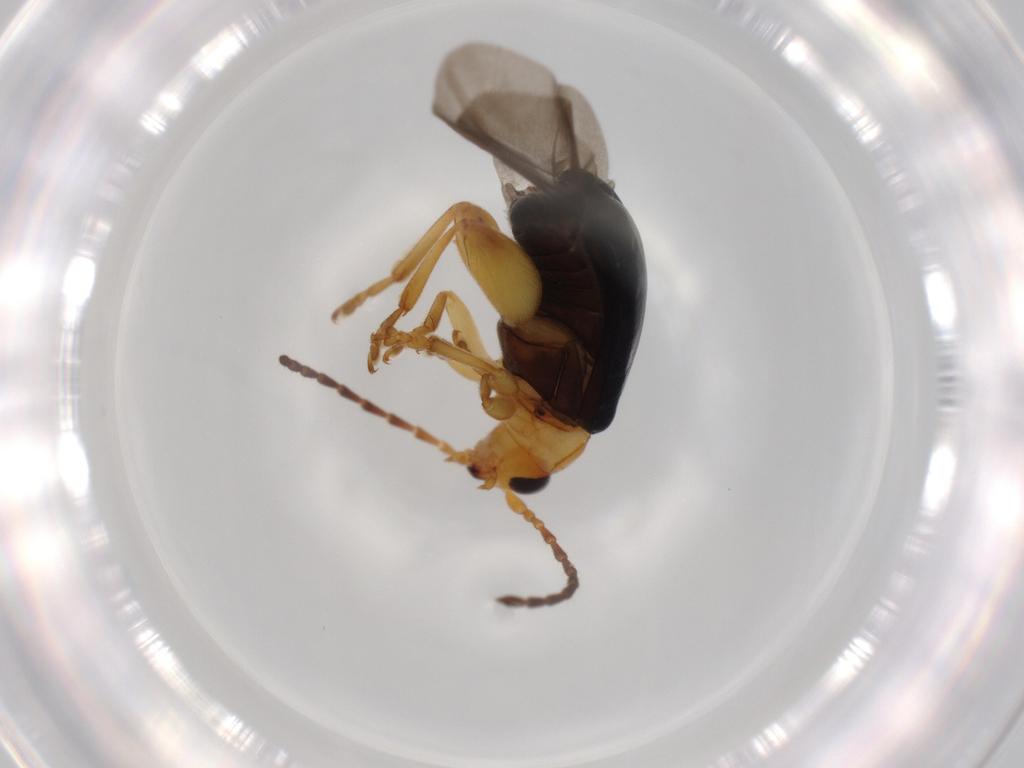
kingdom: Animalia
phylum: Arthropoda
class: Insecta
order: Coleoptera
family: Chrysomelidae
